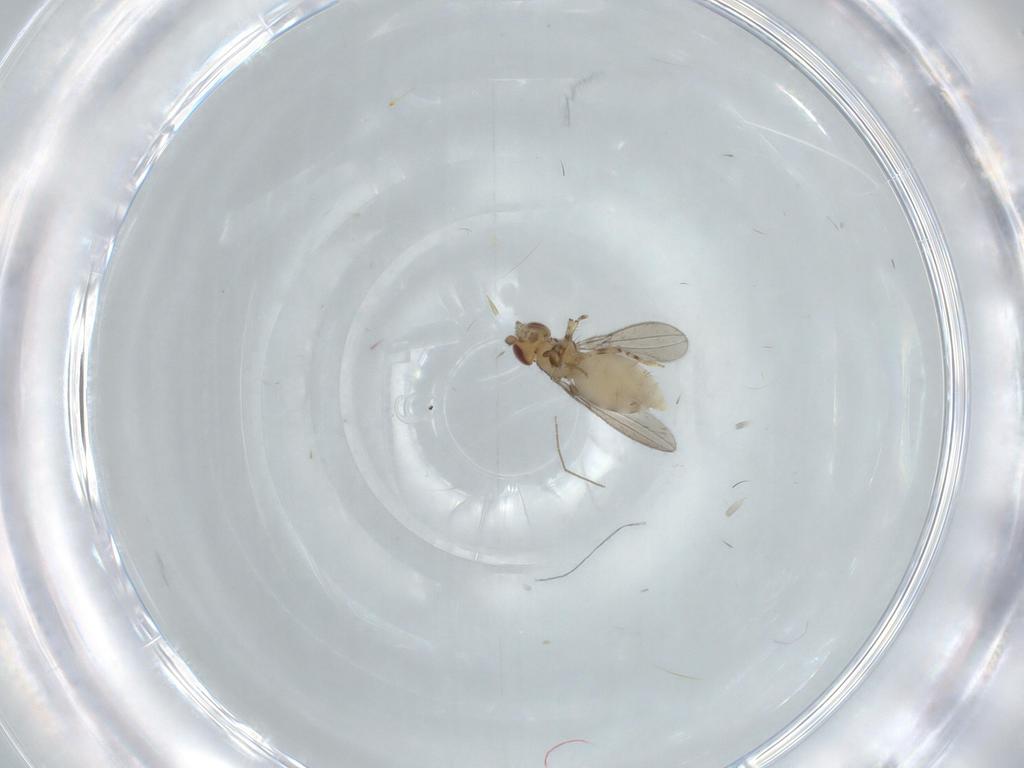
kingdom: Animalia
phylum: Arthropoda
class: Insecta
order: Diptera
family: Asteiidae
